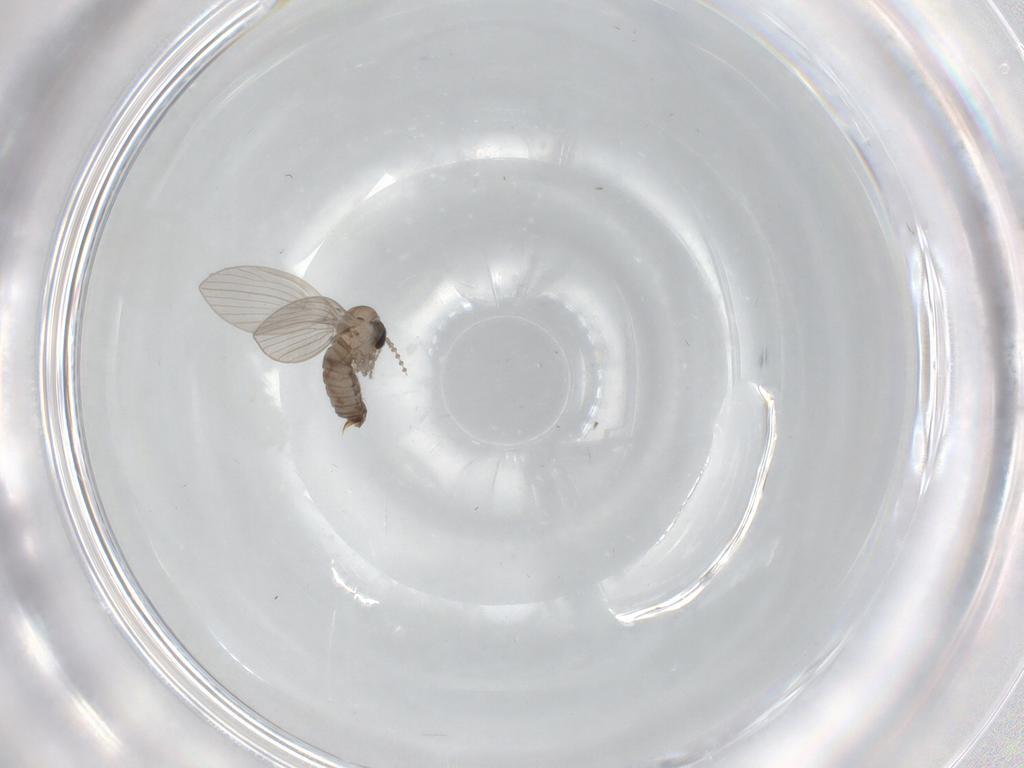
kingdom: Animalia
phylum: Arthropoda
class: Insecta
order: Diptera
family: Psychodidae
